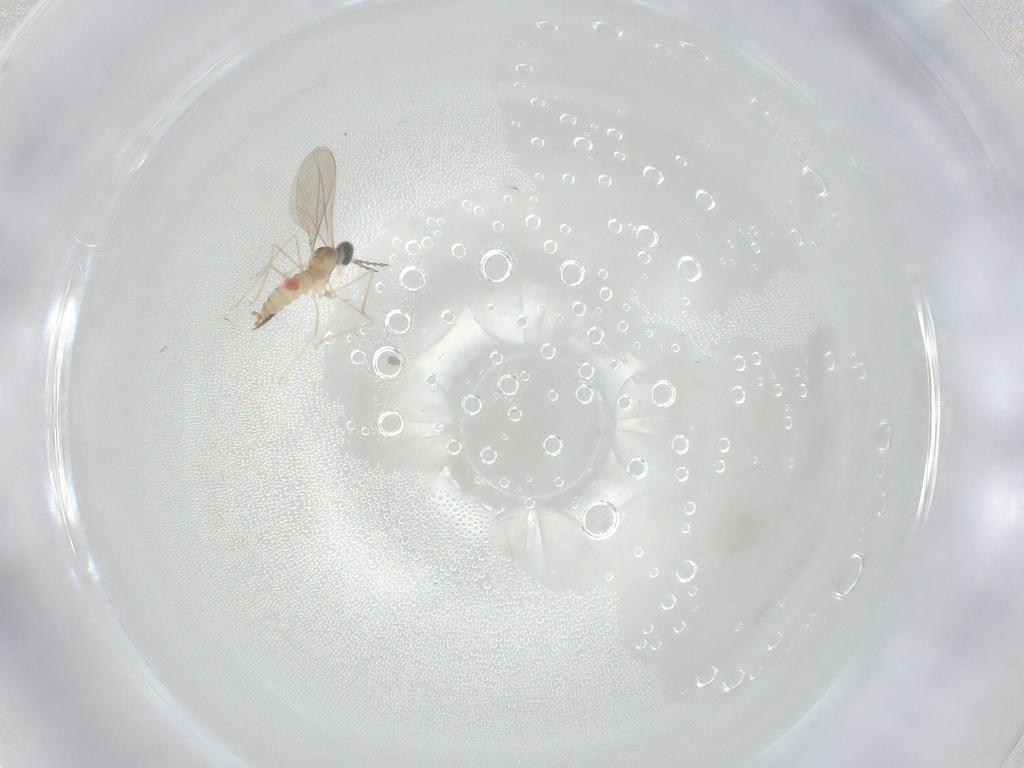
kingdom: Animalia
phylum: Arthropoda
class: Insecta
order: Diptera
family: Cecidomyiidae
